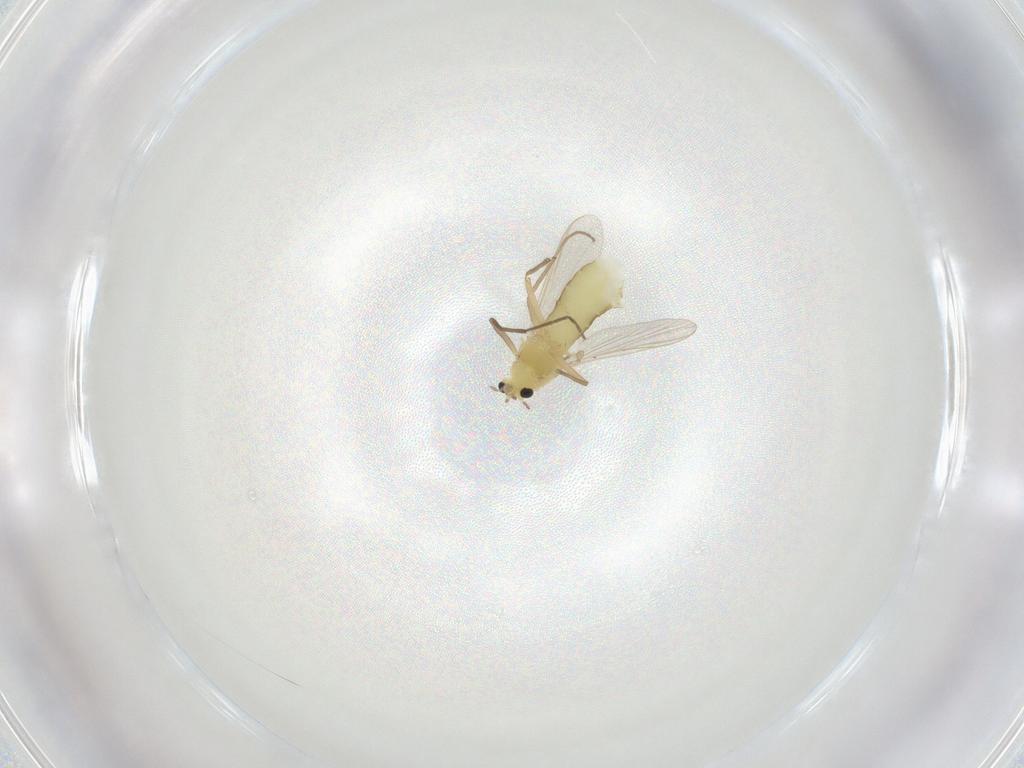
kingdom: Animalia
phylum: Arthropoda
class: Insecta
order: Diptera
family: Chironomidae
